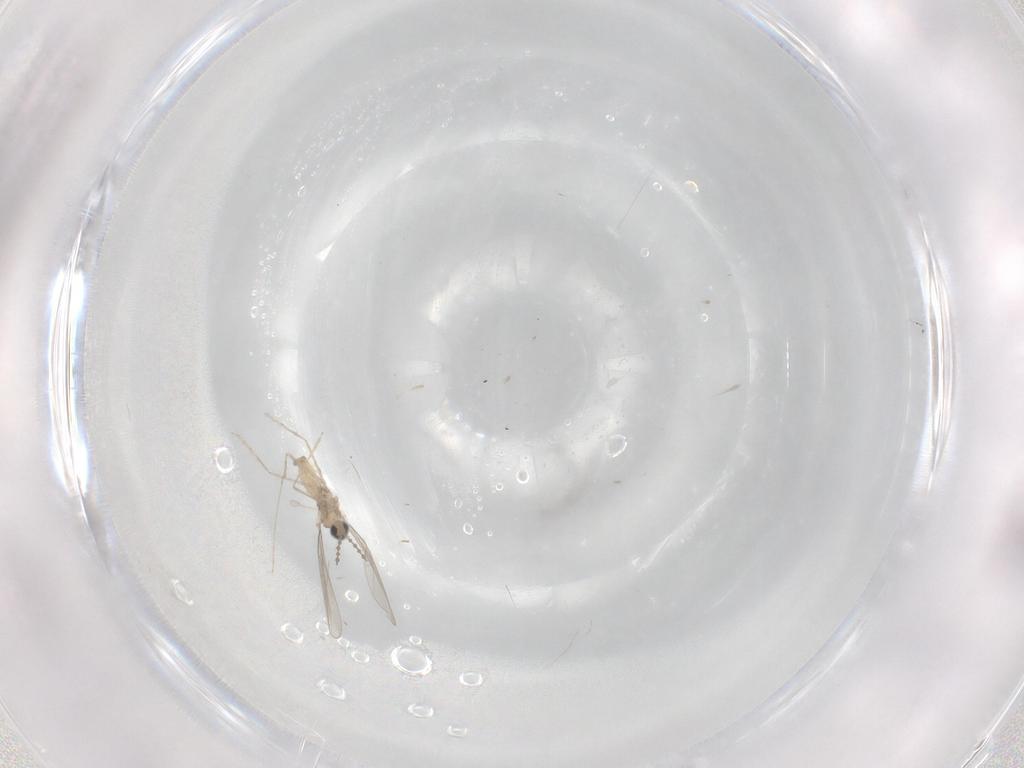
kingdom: Animalia
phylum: Arthropoda
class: Insecta
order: Diptera
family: Cecidomyiidae
